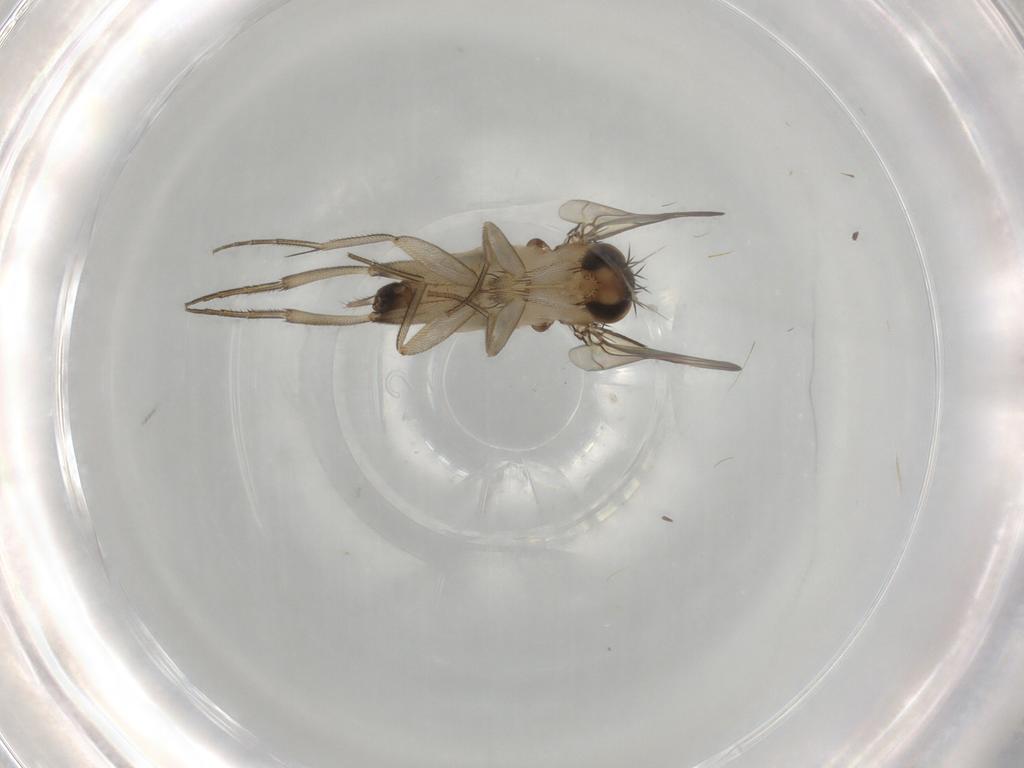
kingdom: Animalia
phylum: Arthropoda
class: Insecta
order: Diptera
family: Phoridae
